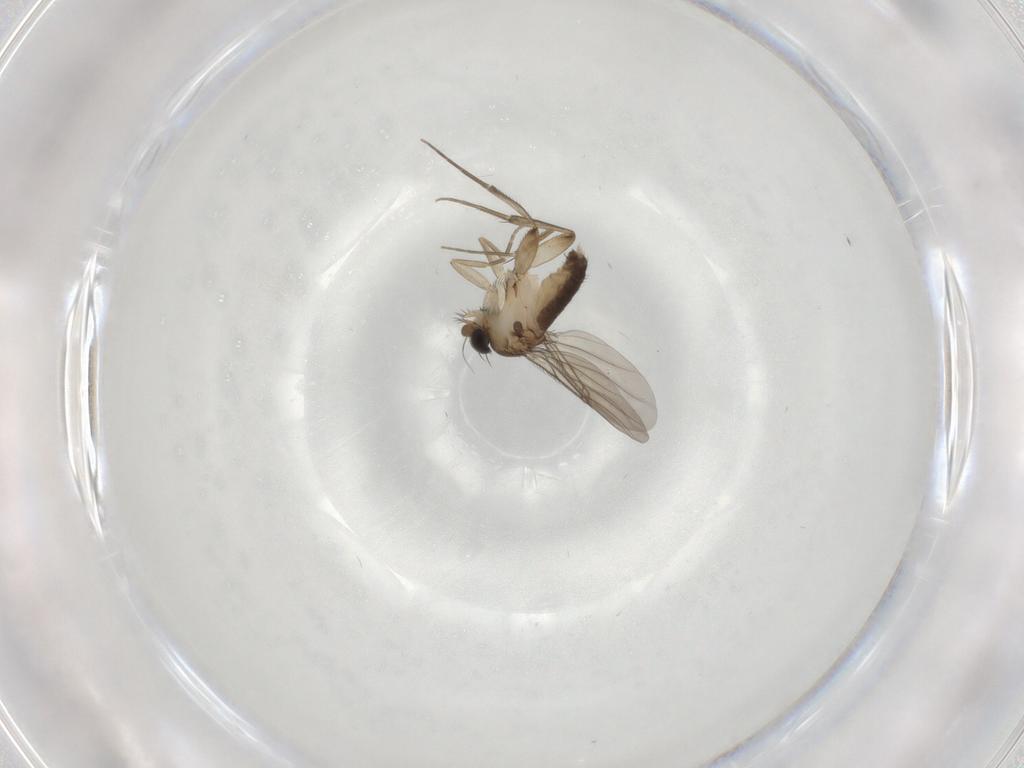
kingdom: Animalia
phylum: Arthropoda
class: Insecta
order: Diptera
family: Phoridae
